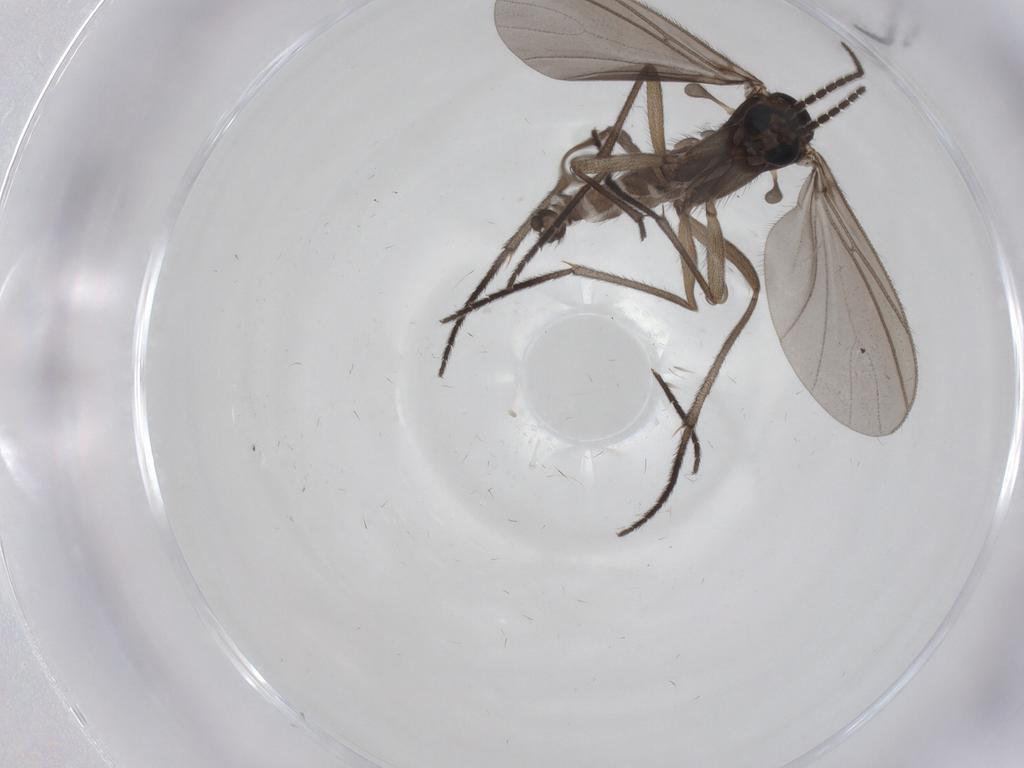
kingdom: Animalia
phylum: Arthropoda
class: Insecta
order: Diptera
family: Sciaridae
